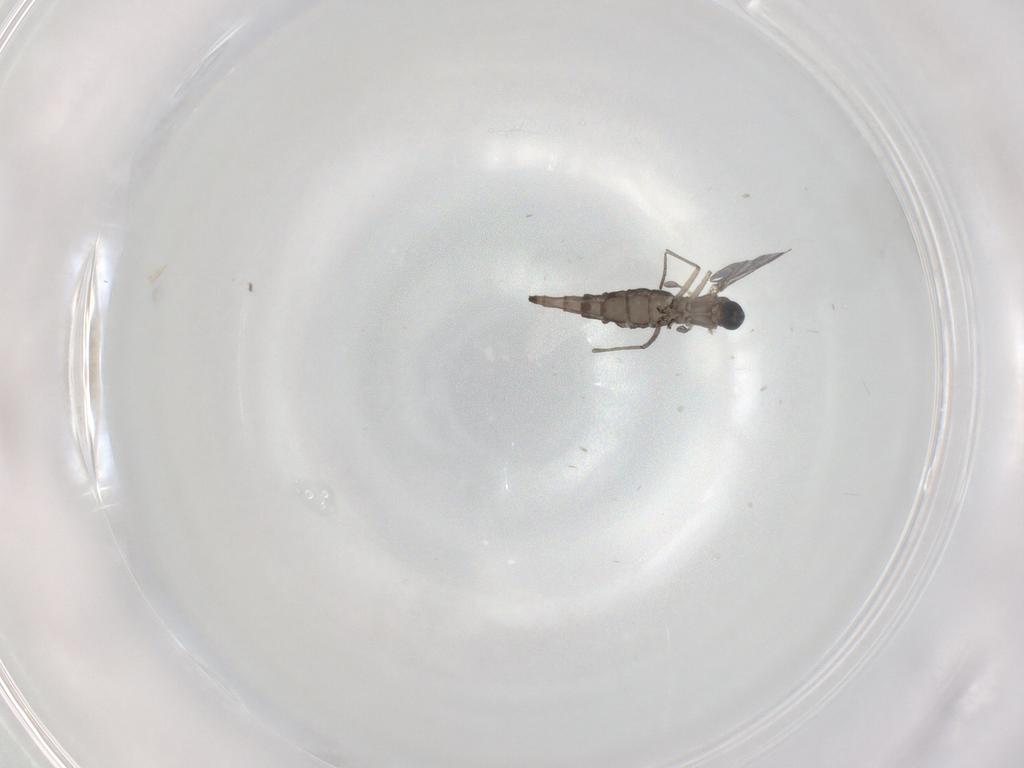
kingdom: Animalia
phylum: Arthropoda
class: Insecta
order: Diptera
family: Sciaridae
